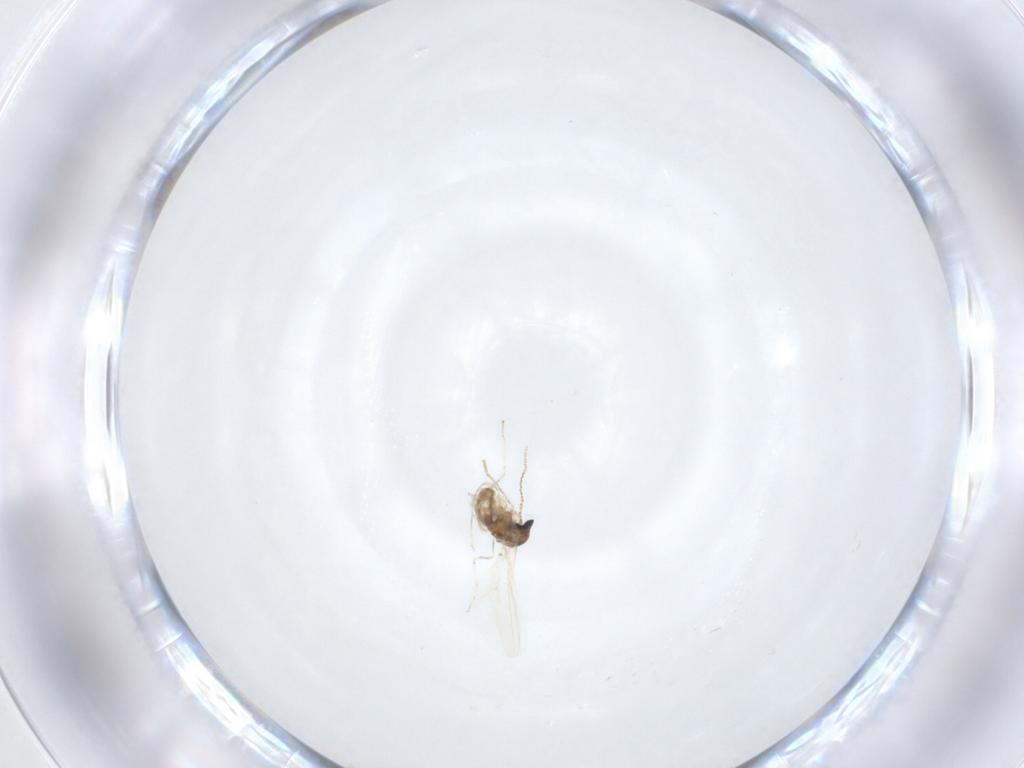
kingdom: Animalia
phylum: Arthropoda
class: Insecta
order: Diptera
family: Cecidomyiidae
